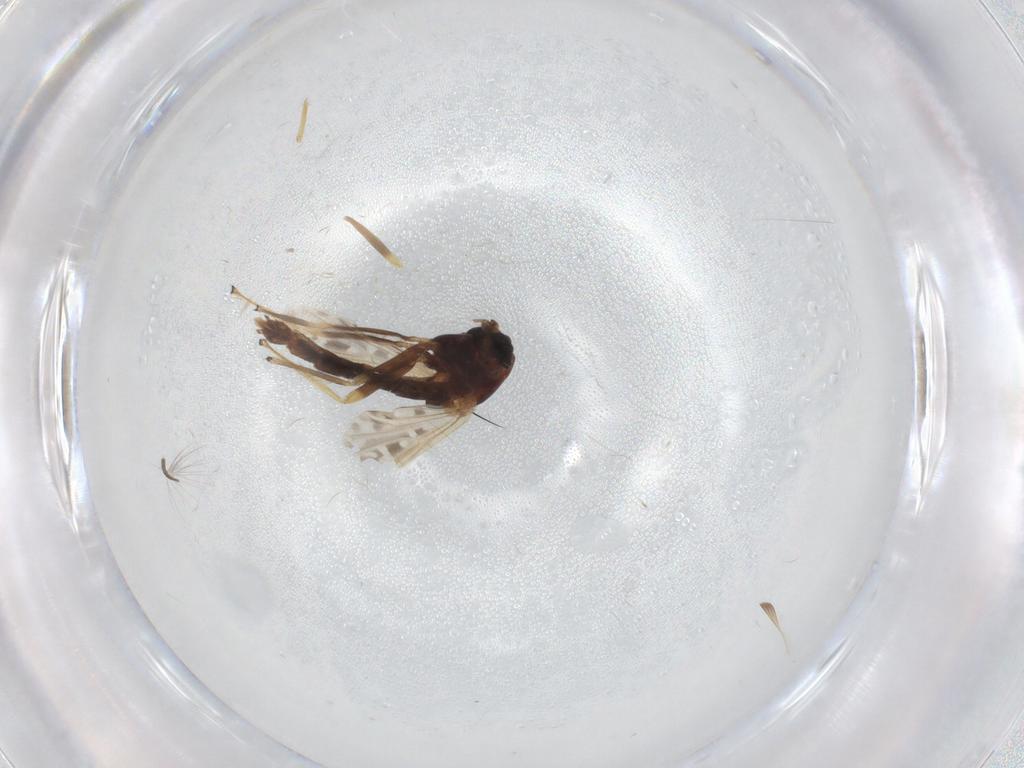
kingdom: Animalia
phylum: Arthropoda
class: Insecta
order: Diptera
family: Chironomidae
